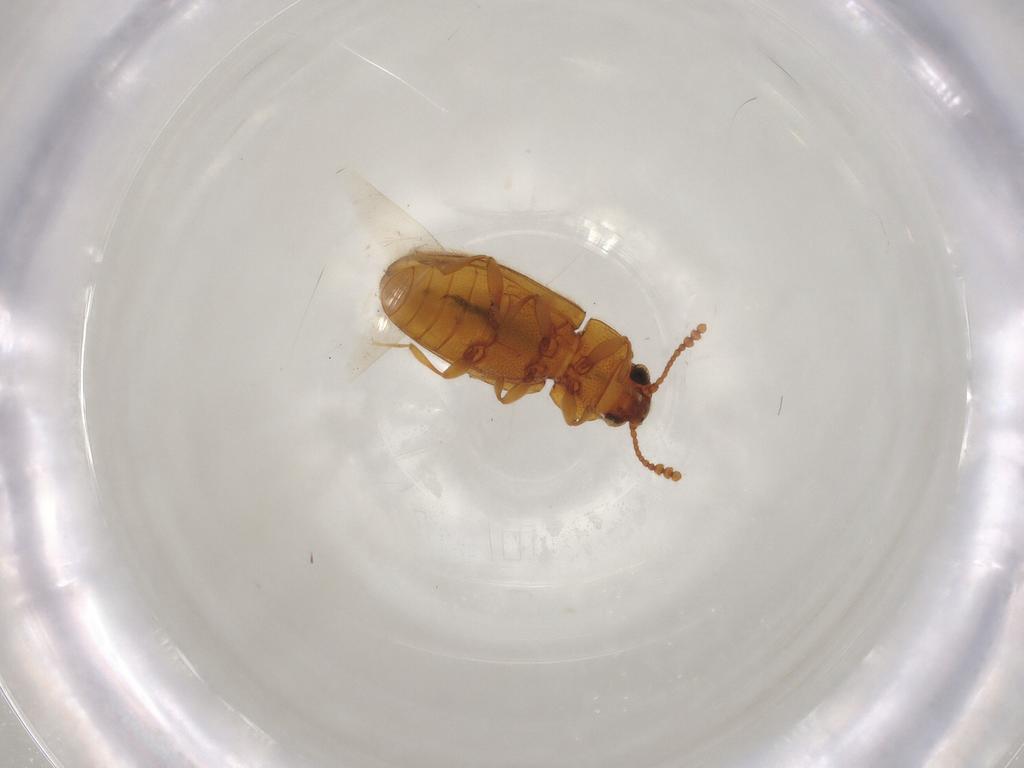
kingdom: Animalia
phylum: Arthropoda
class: Insecta
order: Coleoptera
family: Erotylidae
